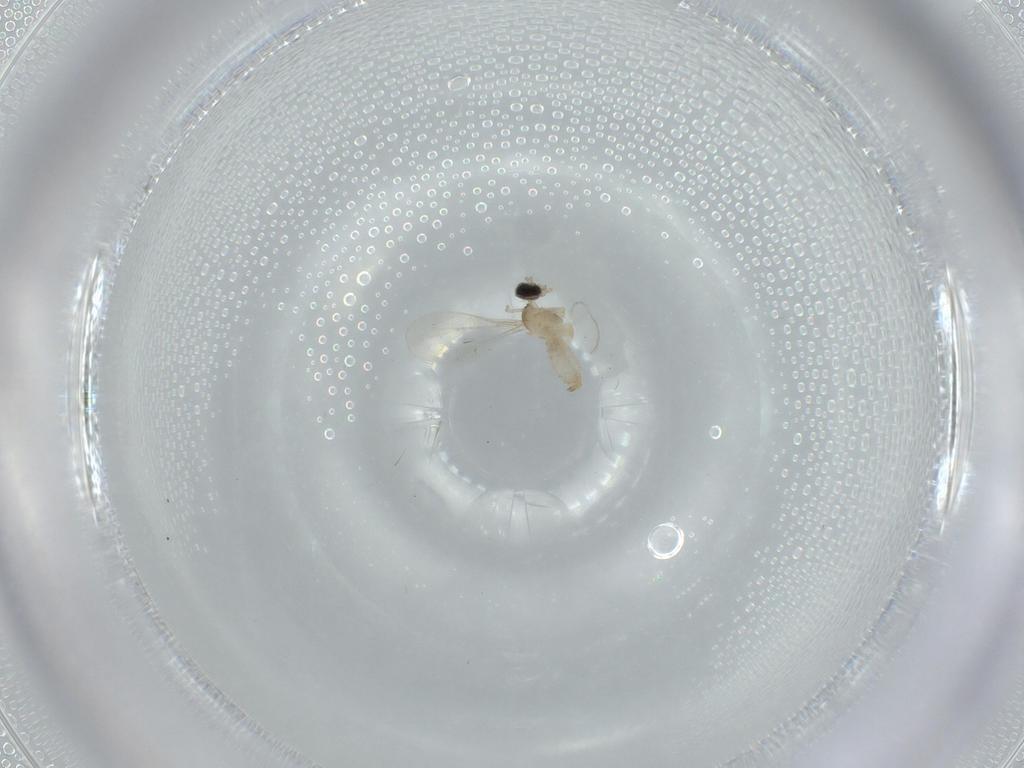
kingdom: Animalia
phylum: Arthropoda
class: Insecta
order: Diptera
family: Cecidomyiidae
